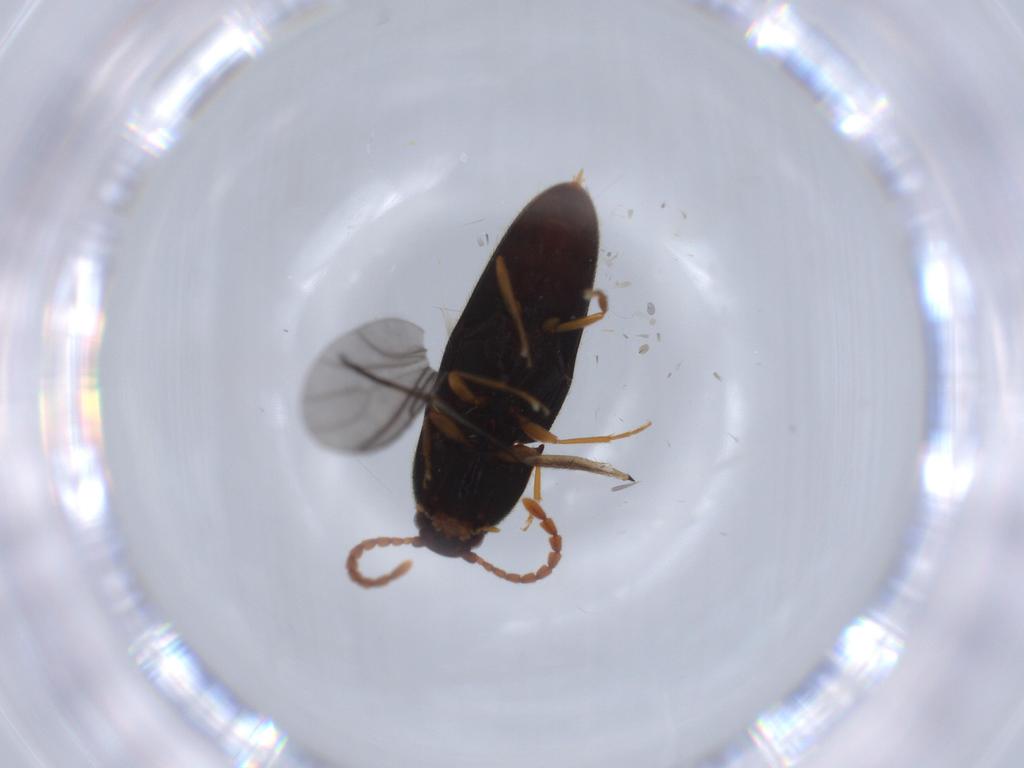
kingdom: Animalia
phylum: Arthropoda
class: Insecta
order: Coleoptera
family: Elateridae
